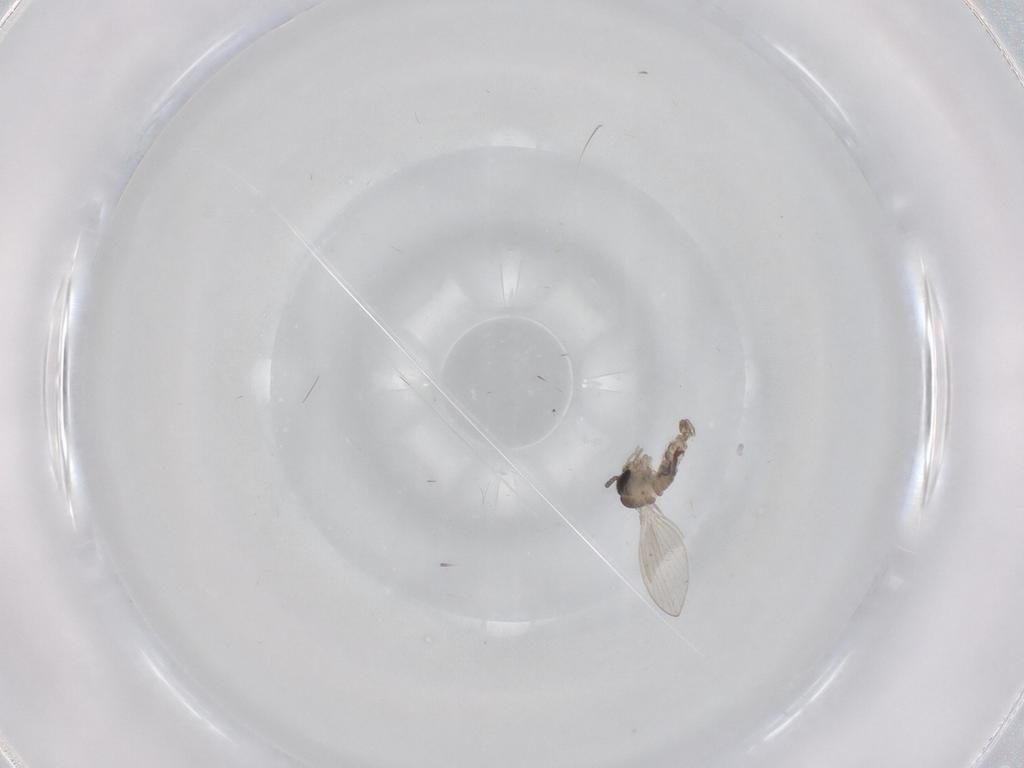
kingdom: Animalia
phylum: Arthropoda
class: Insecta
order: Diptera
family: Psychodidae
